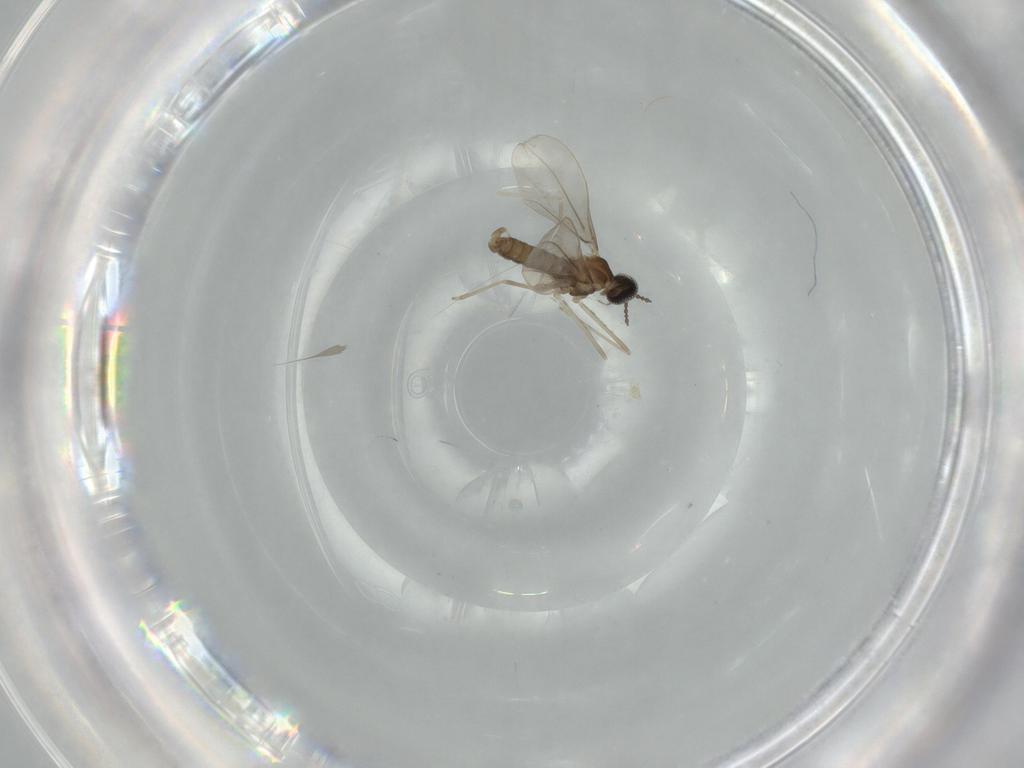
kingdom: Animalia
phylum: Arthropoda
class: Insecta
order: Diptera
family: Cecidomyiidae
